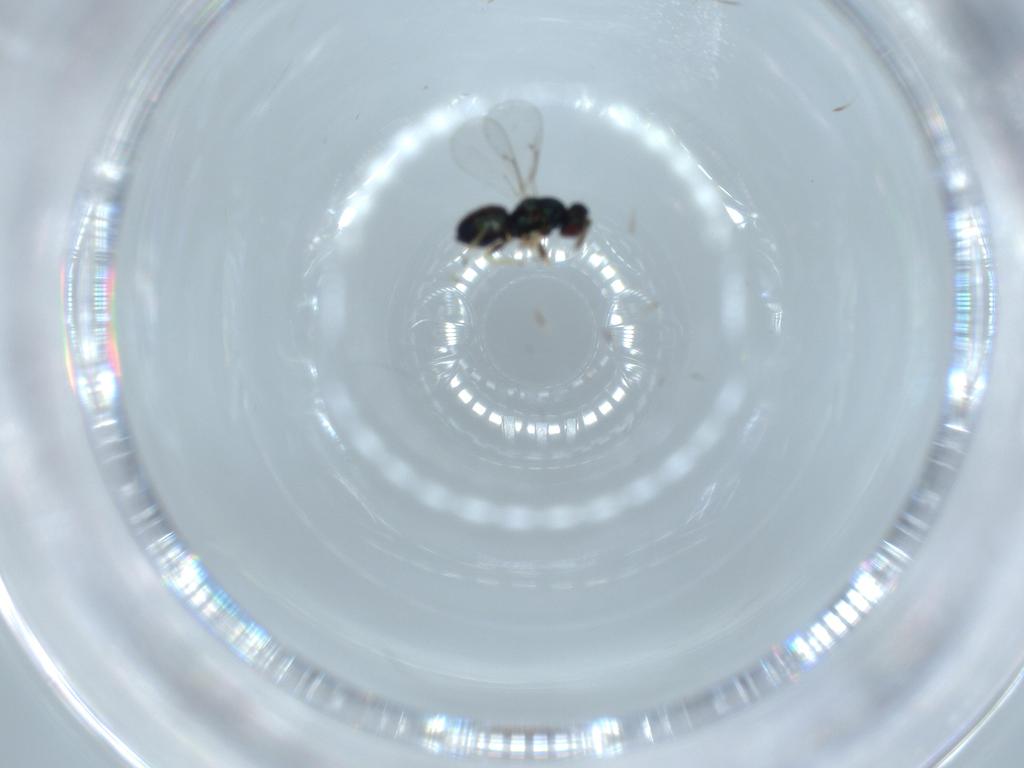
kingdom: Animalia
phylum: Arthropoda
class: Insecta
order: Hymenoptera
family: Eulophidae
